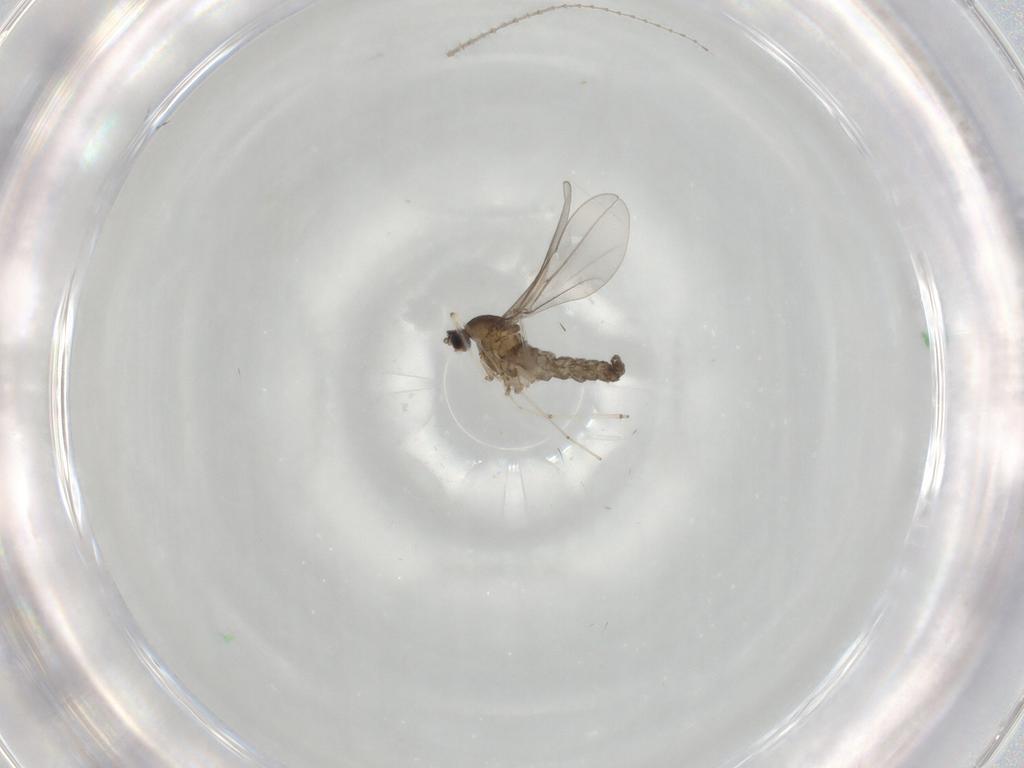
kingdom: Animalia
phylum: Arthropoda
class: Insecta
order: Diptera
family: Cecidomyiidae
